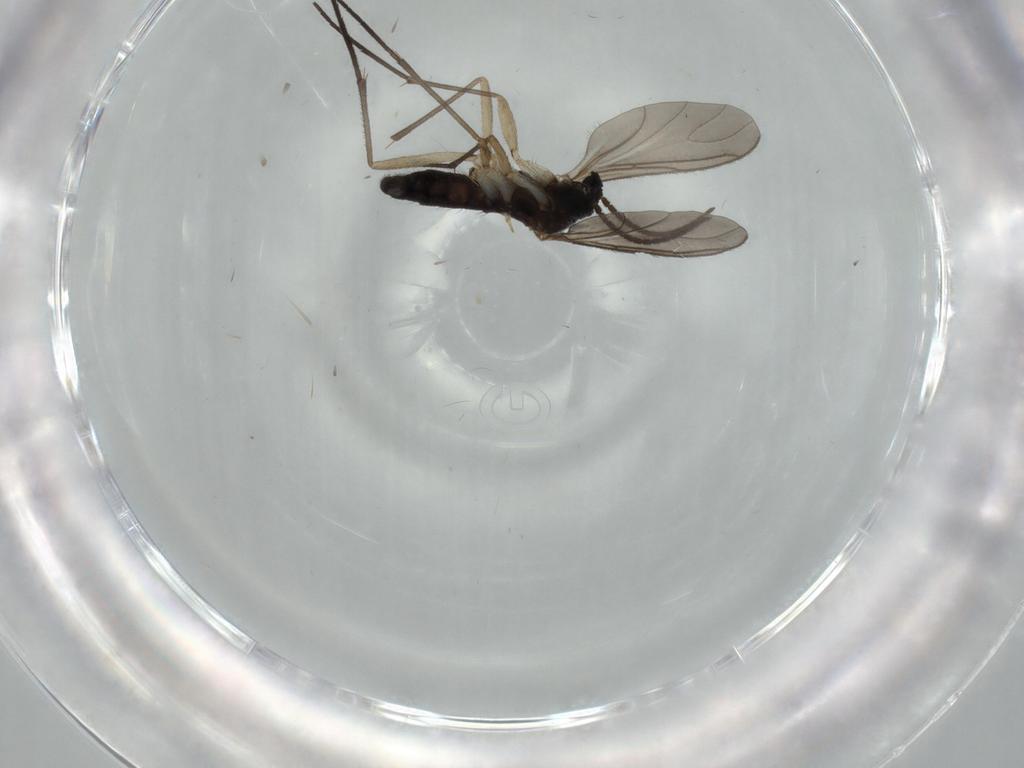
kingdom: Animalia
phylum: Arthropoda
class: Insecta
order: Diptera
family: Sciaridae
